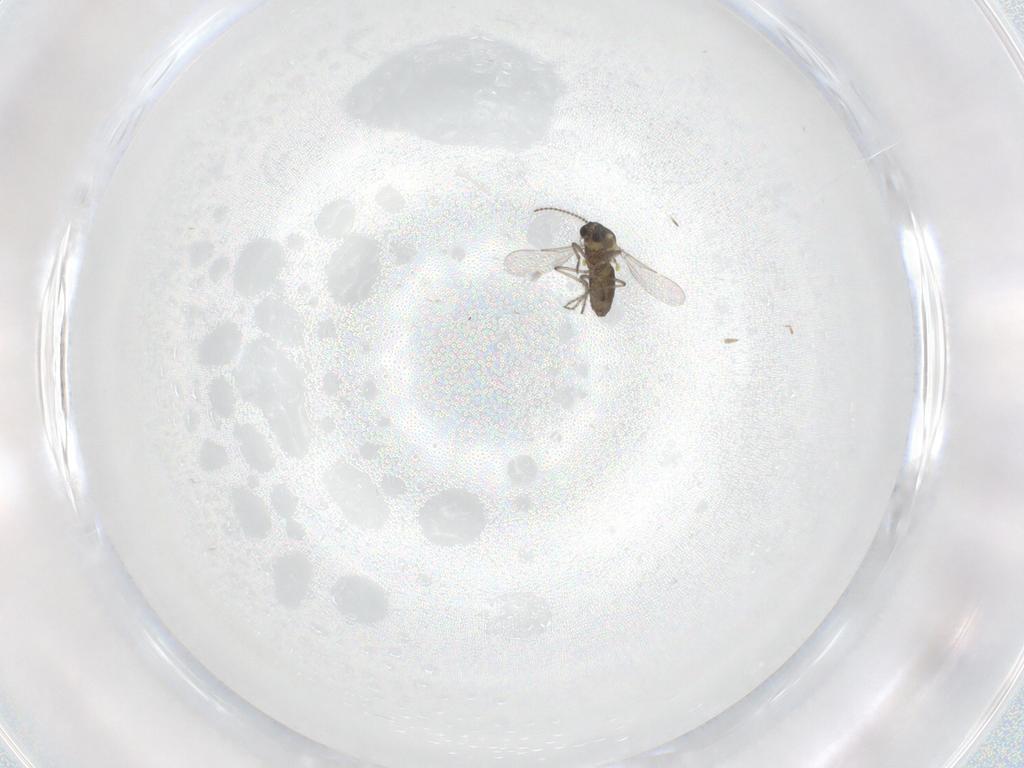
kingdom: Animalia
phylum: Arthropoda
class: Insecta
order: Diptera
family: Ceratopogonidae
